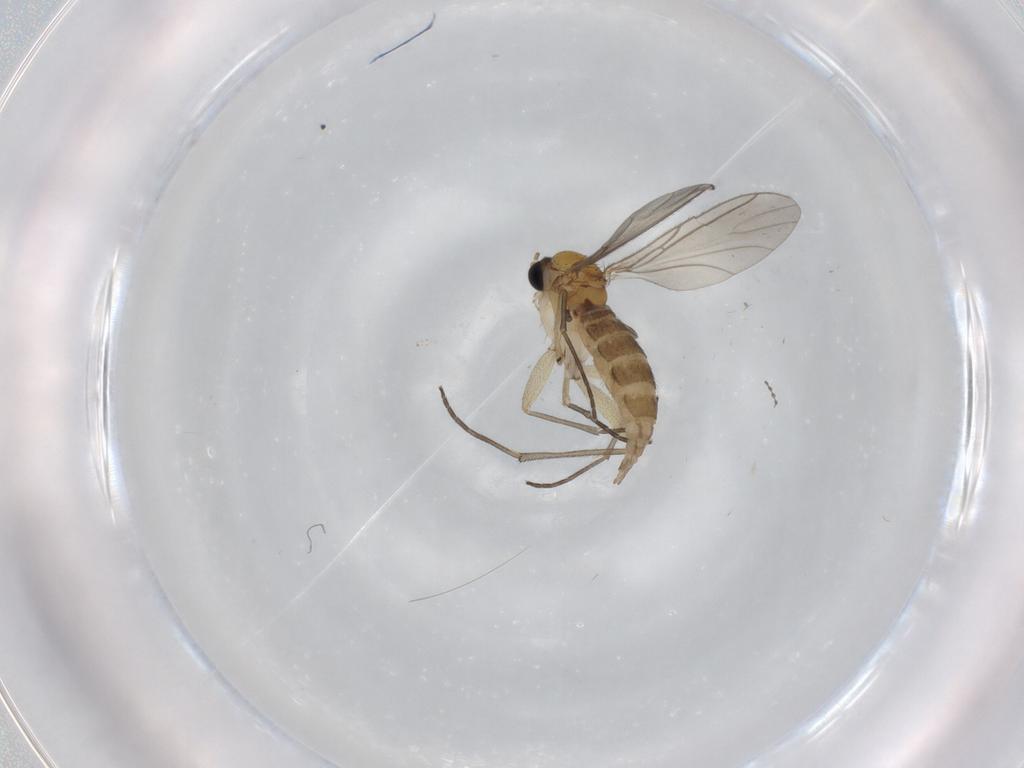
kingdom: Animalia
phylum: Arthropoda
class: Insecta
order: Diptera
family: Sciaridae
